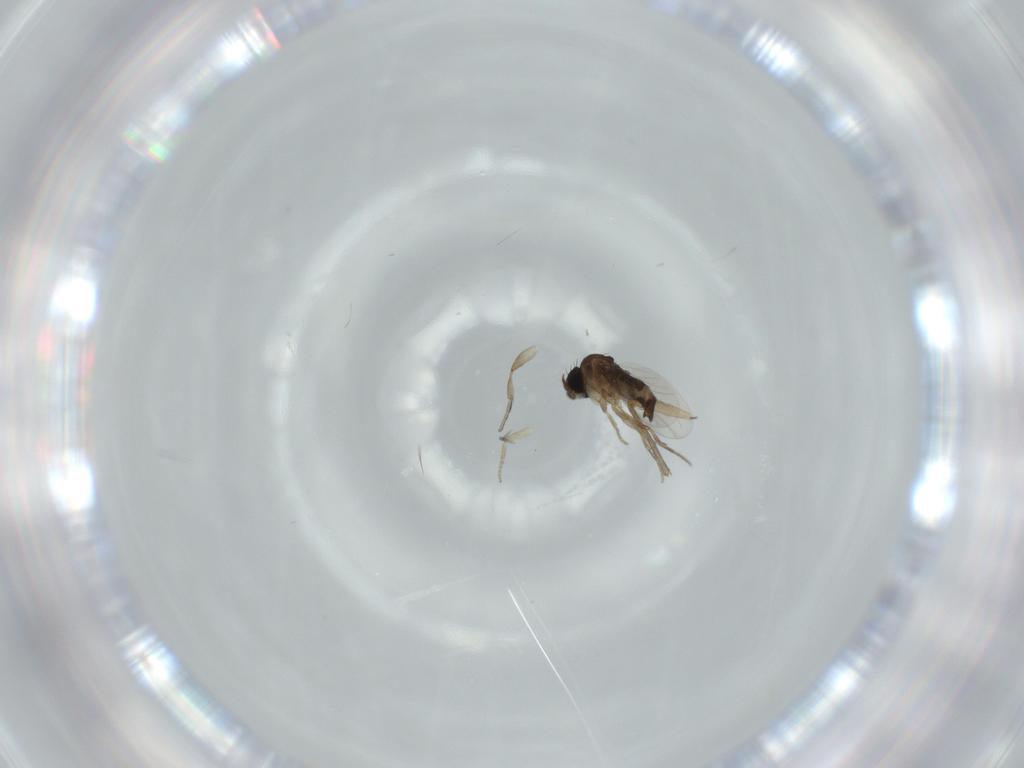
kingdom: Animalia
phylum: Arthropoda
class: Insecta
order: Diptera
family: Phoridae
